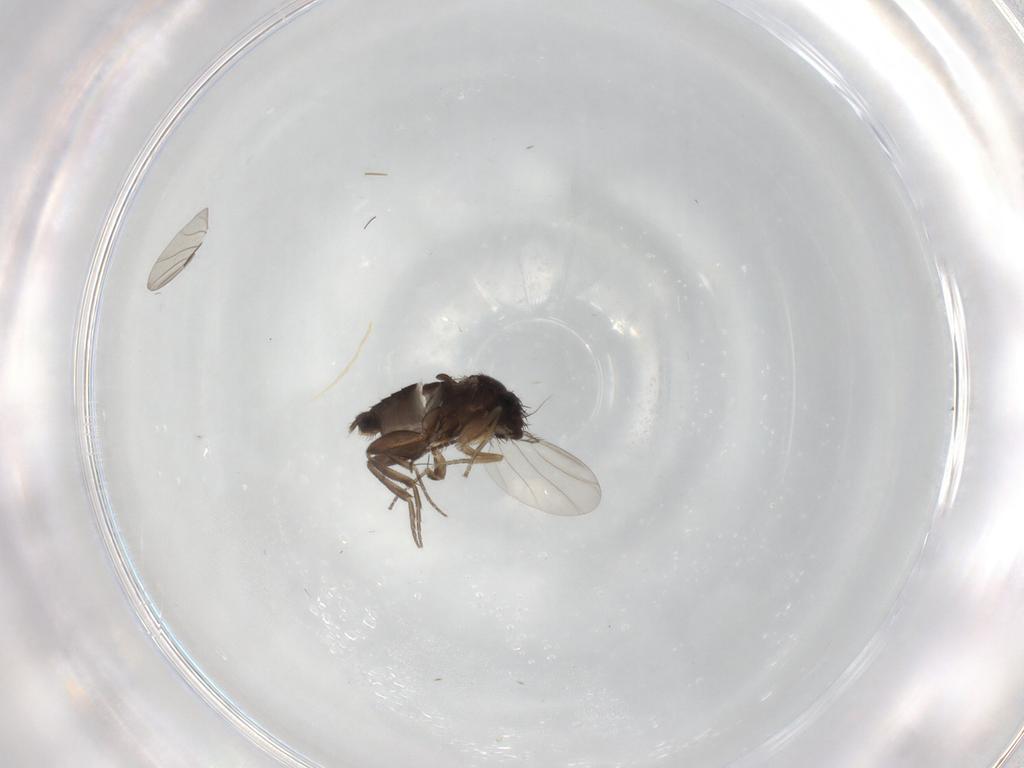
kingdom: Animalia
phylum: Arthropoda
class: Insecta
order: Diptera
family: Phoridae
